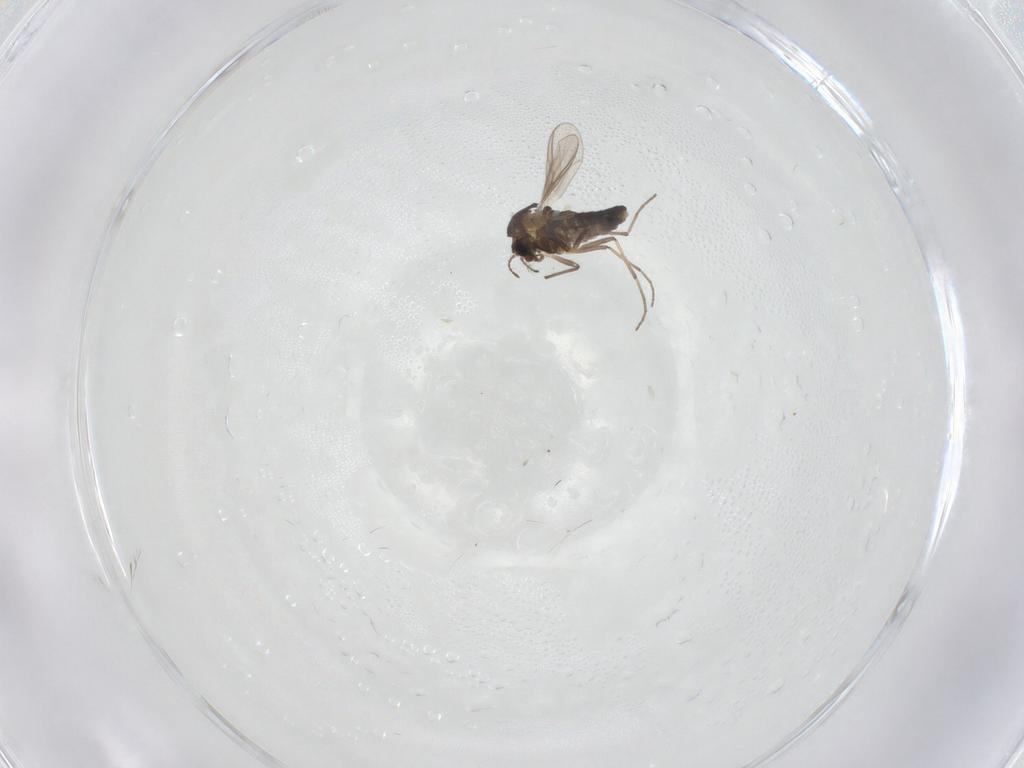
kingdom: Animalia
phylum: Arthropoda
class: Insecta
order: Diptera
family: Chironomidae
